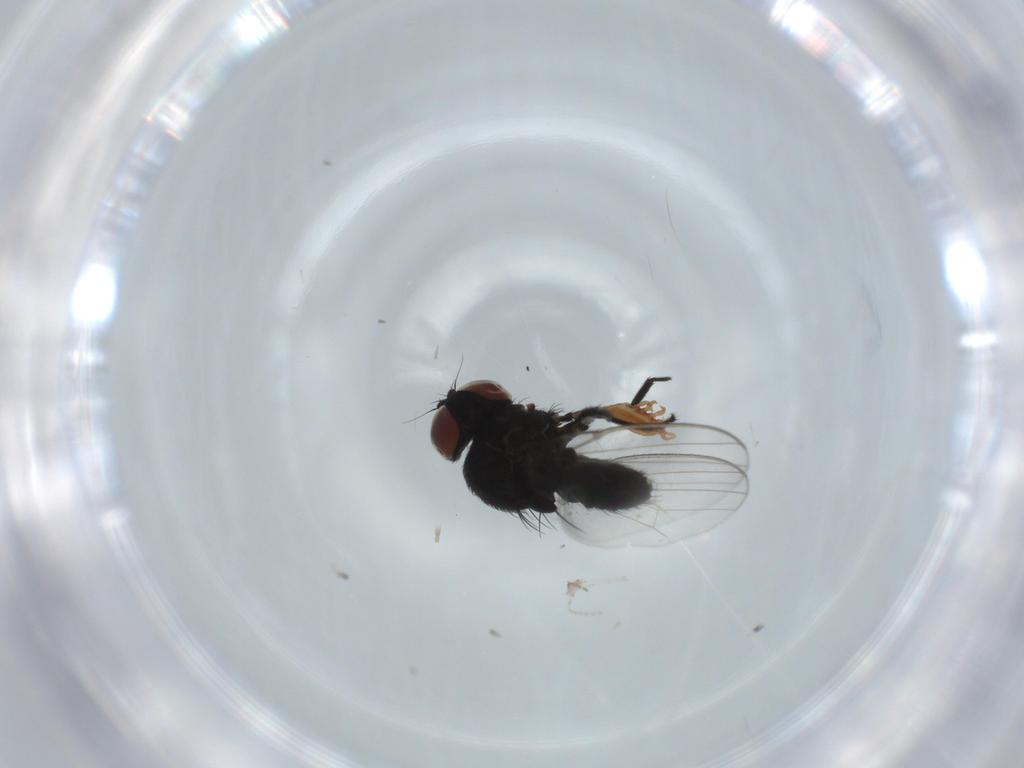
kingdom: Animalia
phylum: Arthropoda
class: Insecta
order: Diptera
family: Milichiidae
